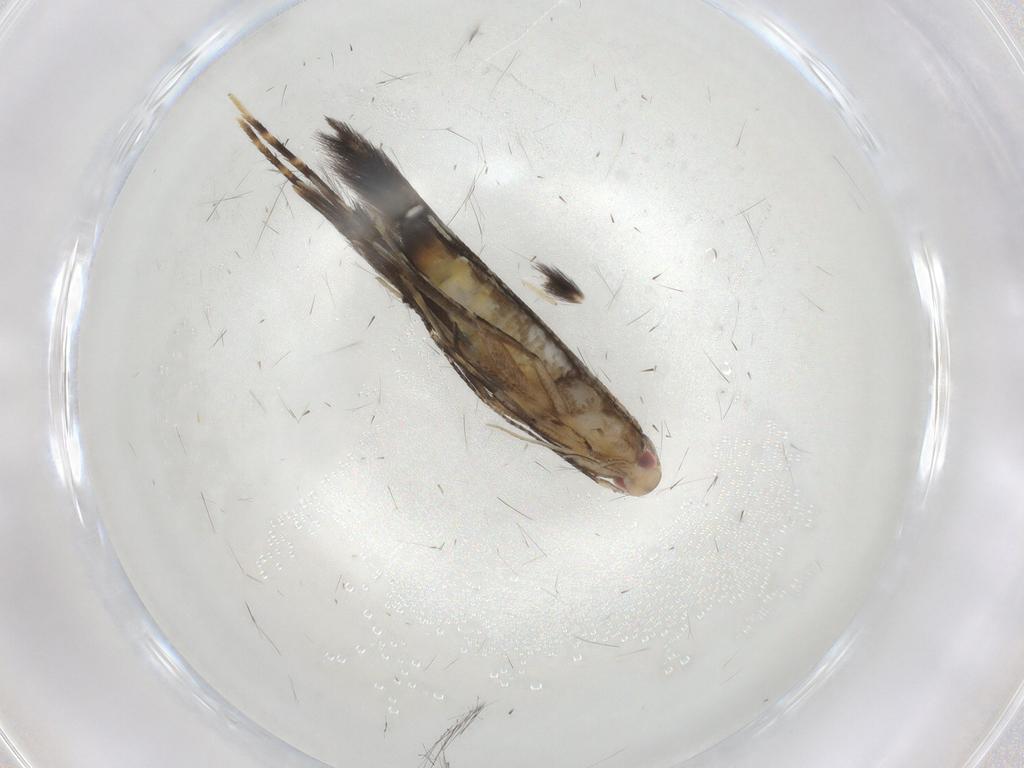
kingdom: Animalia
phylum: Arthropoda
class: Insecta
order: Lepidoptera
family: Cosmopterigidae
